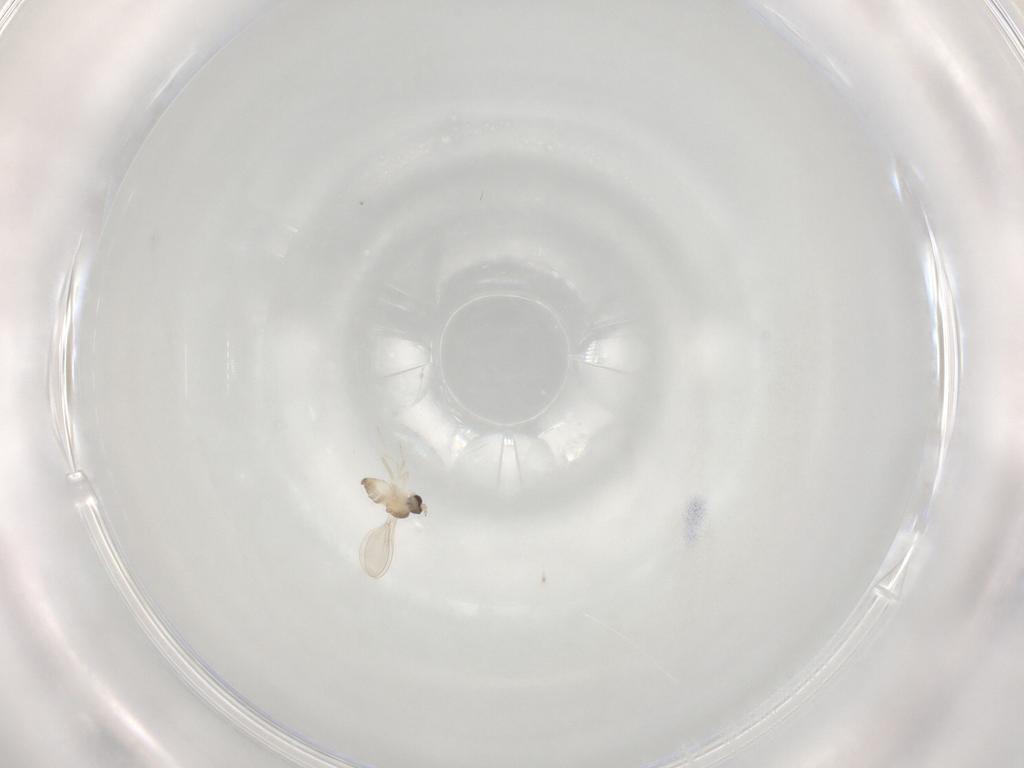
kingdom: Animalia
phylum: Arthropoda
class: Insecta
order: Diptera
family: Cecidomyiidae
